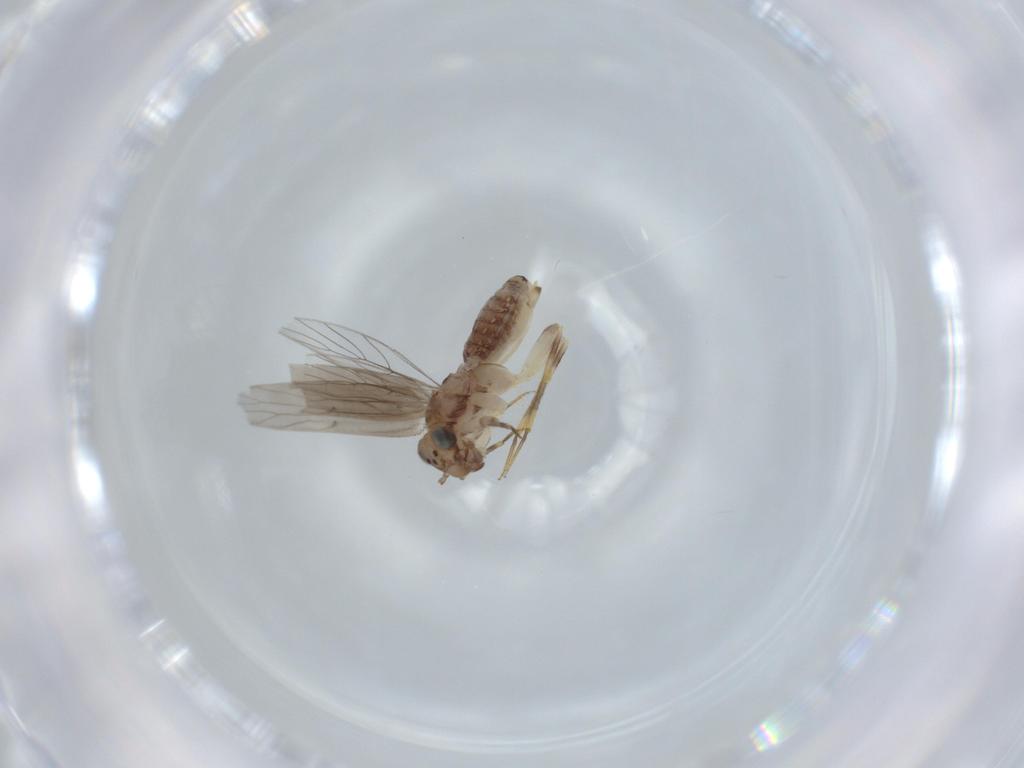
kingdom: Animalia
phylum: Arthropoda
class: Insecta
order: Psocodea
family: Lepidopsocidae
